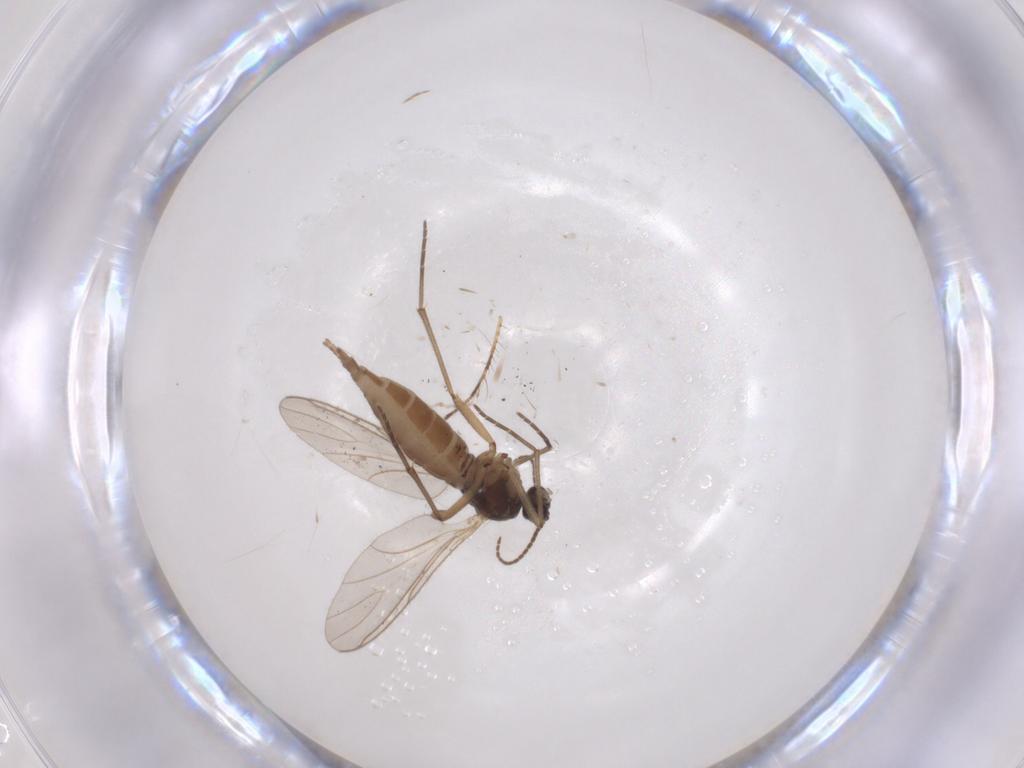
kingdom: Animalia
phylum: Arthropoda
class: Insecta
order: Diptera
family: Sciaridae
